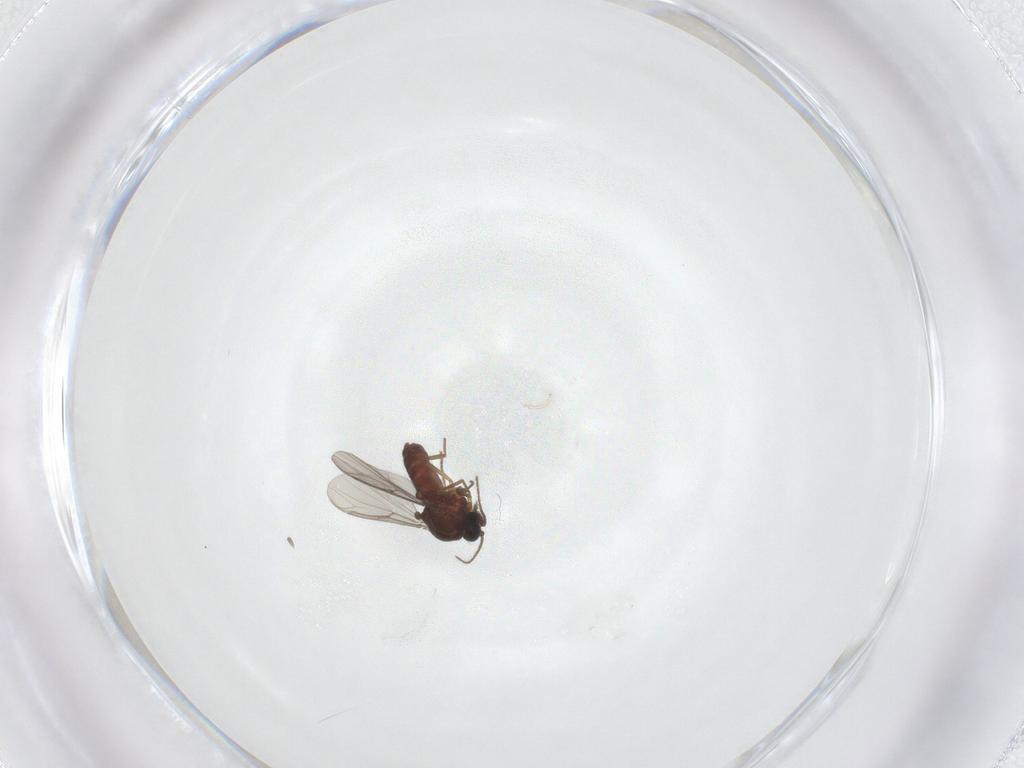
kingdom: Animalia
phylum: Arthropoda
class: Insecta
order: Diptera
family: Ceratopogonidae
